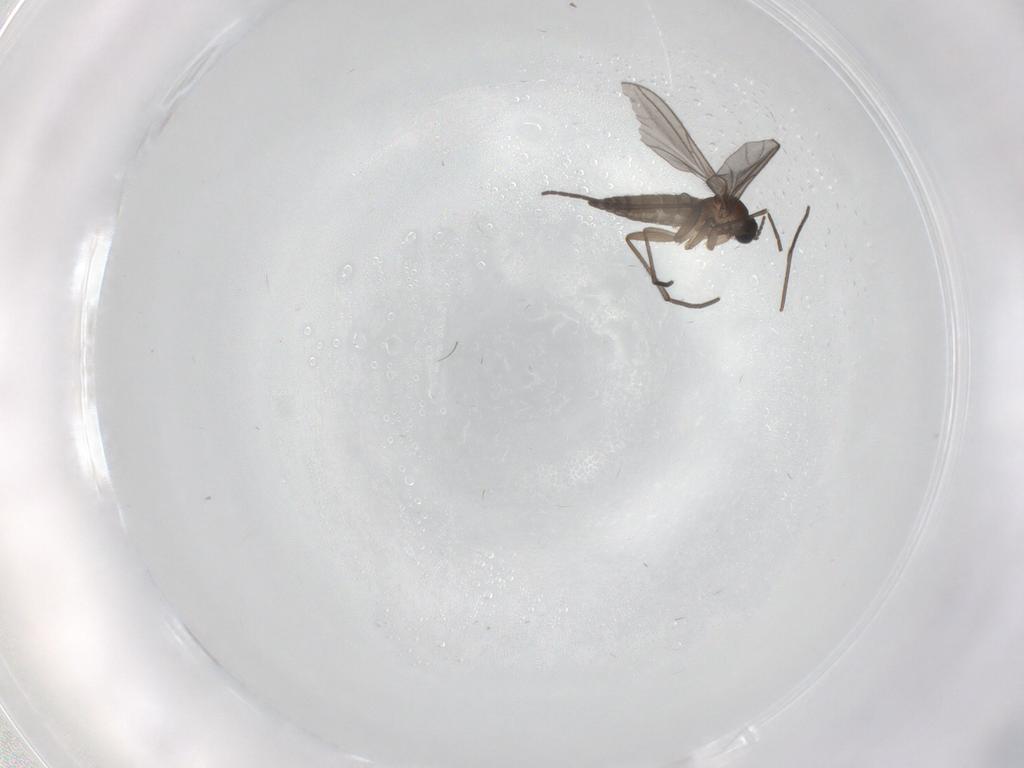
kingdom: Animalia
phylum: Arthropoda
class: Insecta
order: Diptera
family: Sciaridae
